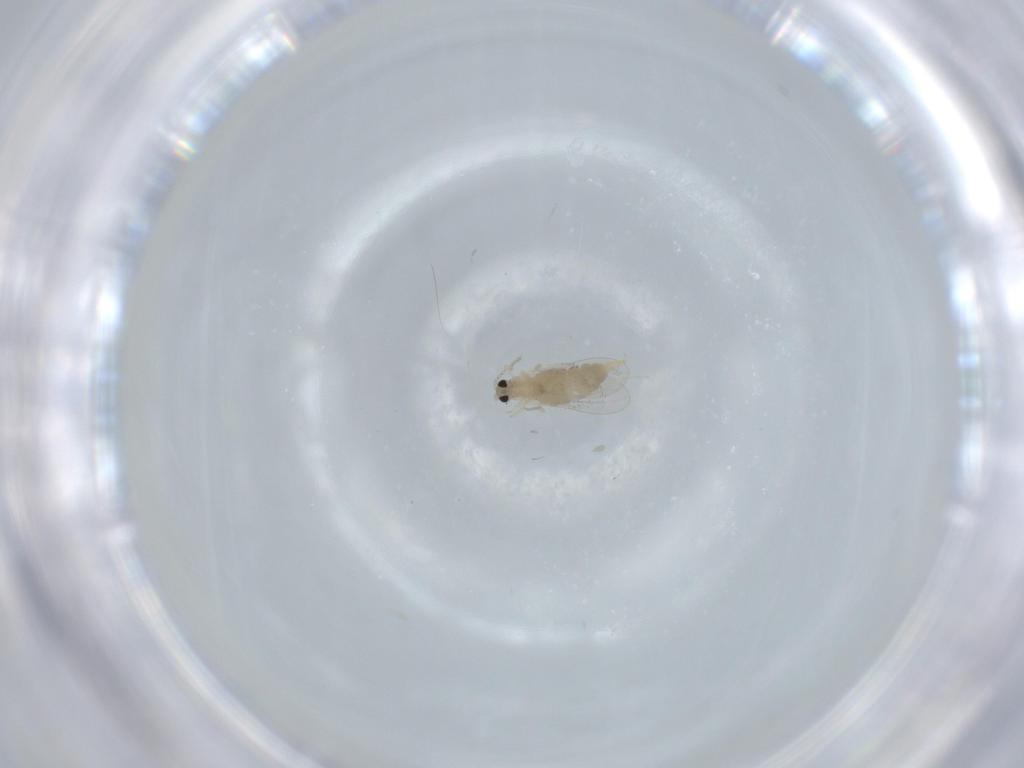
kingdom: Animalia
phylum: Arthropoda
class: Insecta
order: Diptera
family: Cecidomyiidae
